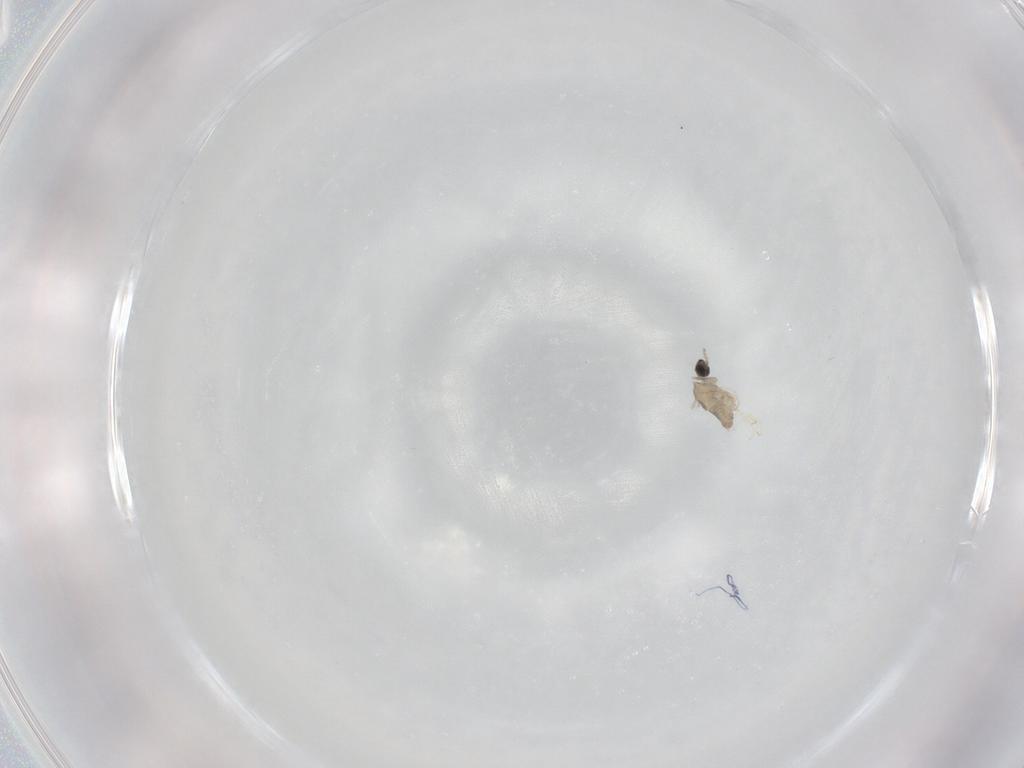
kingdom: Animalia
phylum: Arthropoda
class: Insecta
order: Diptera
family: Cecidomyiidae
